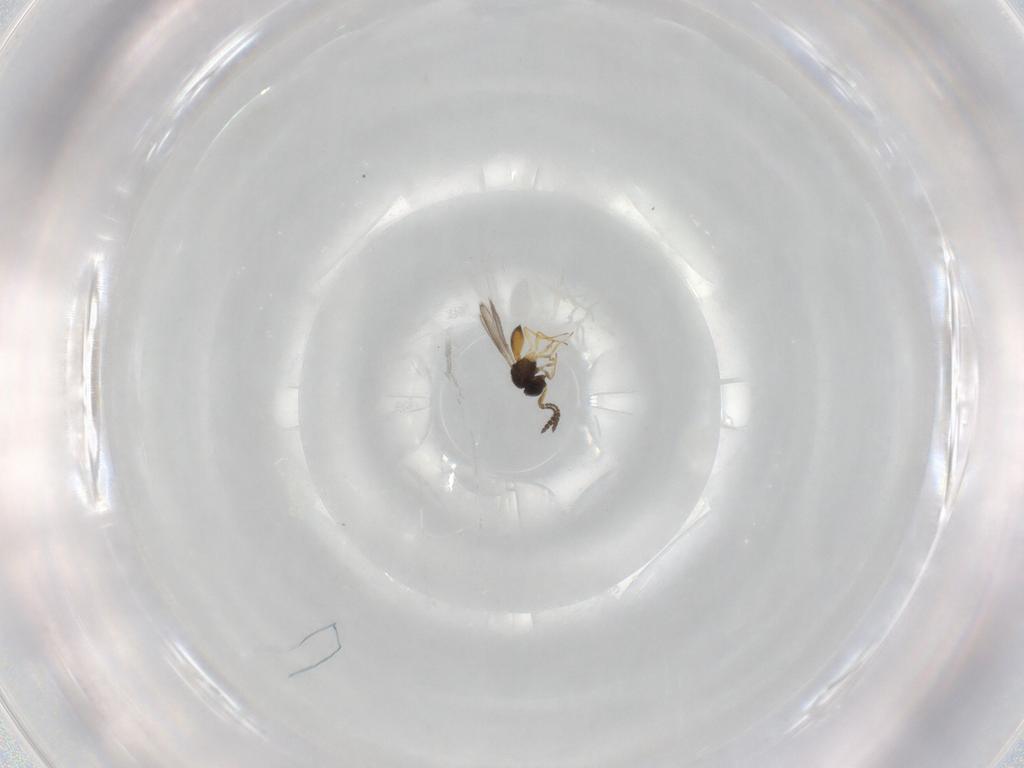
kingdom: Animalia
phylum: Arthropoda
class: Insecta
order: Hymenoptera
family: Scelionidae
